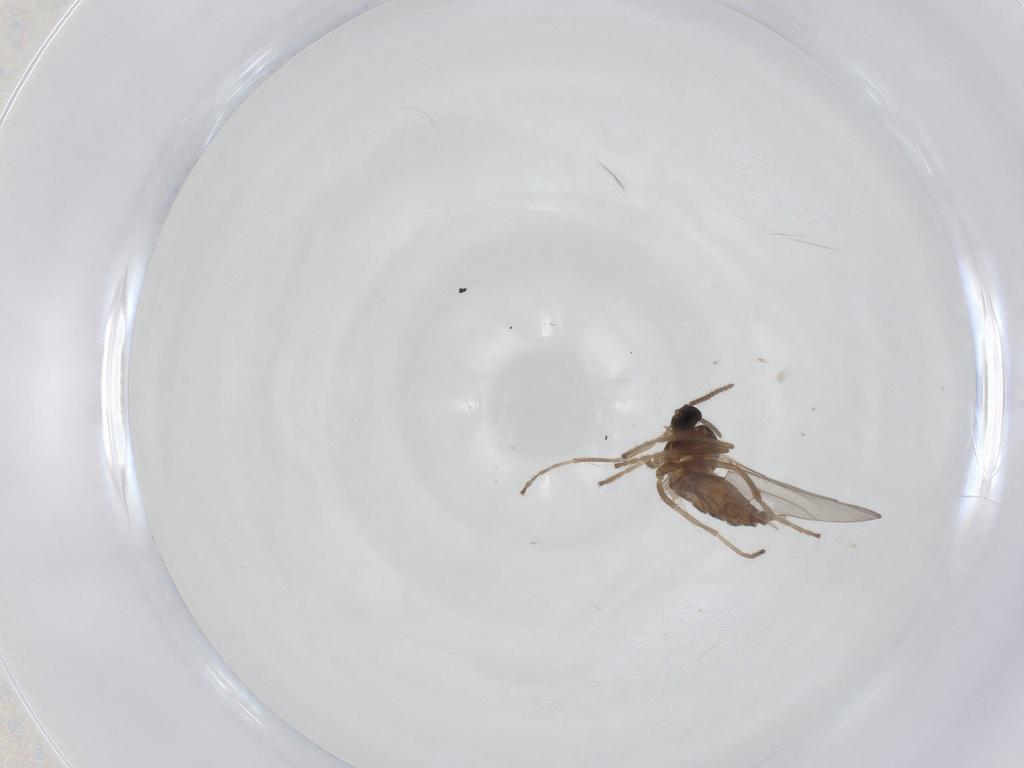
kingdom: Animalia
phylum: Arthropoda
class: Insecta
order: Diptera
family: Cecidomyiidae
